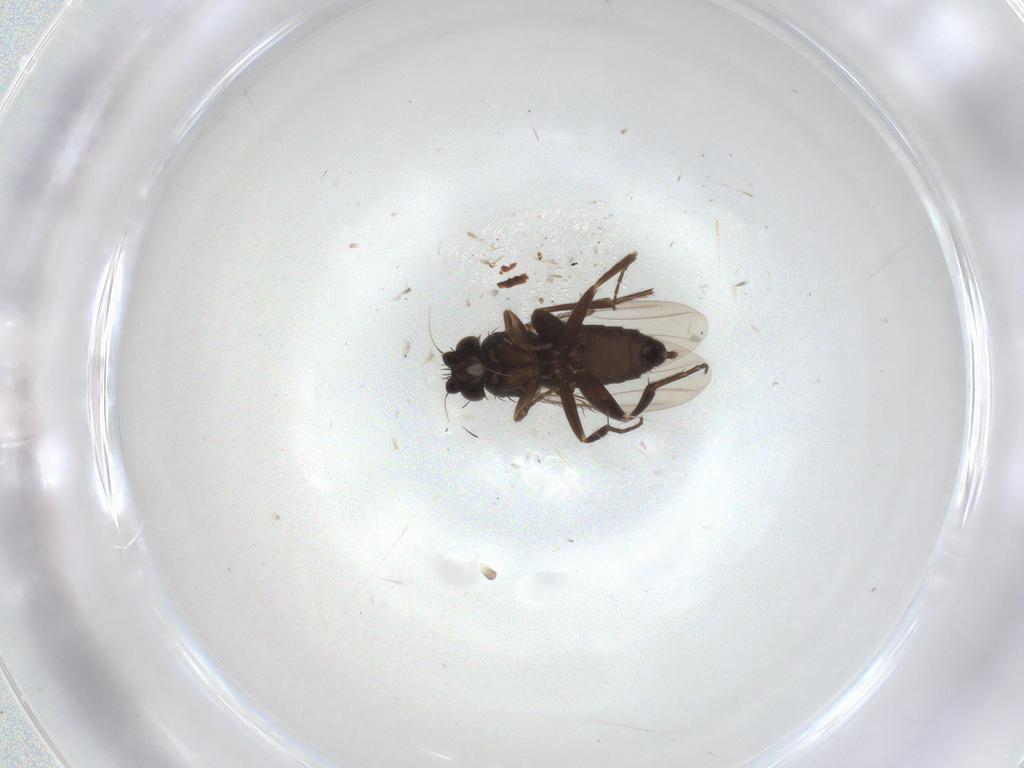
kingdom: Animalia
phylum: Arthropoda
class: Insecta
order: Diptera
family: Phoridae
